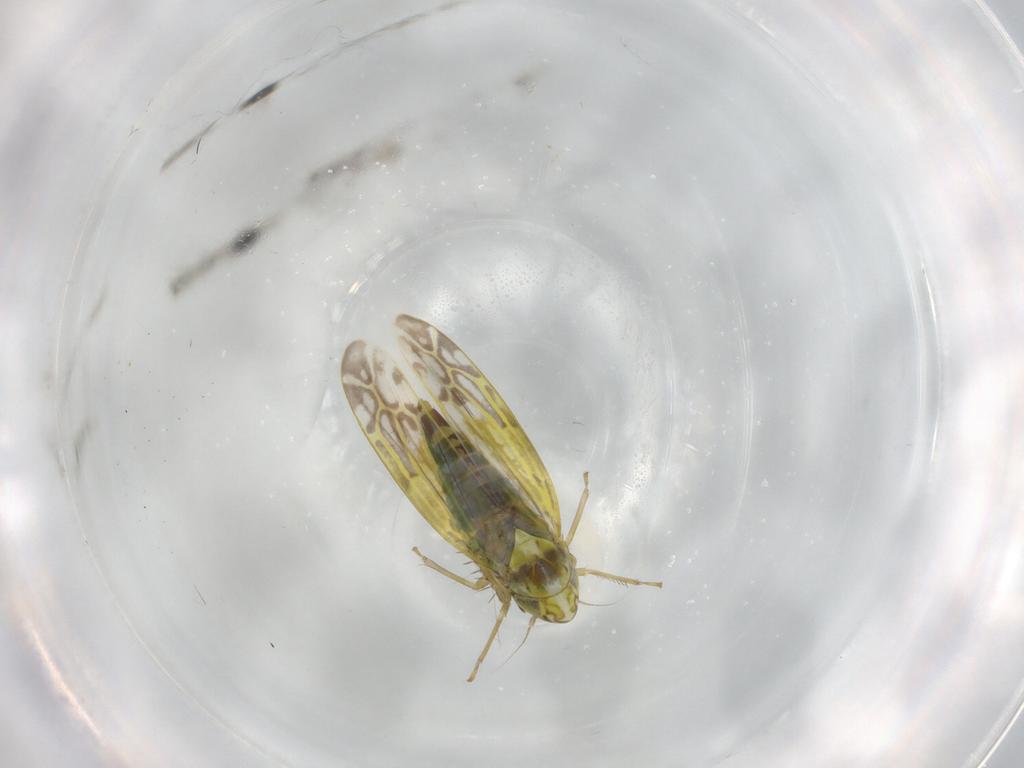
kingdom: Animalia
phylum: Arthropoda
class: Insecta
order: Hemiptera
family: Cicadellidae
